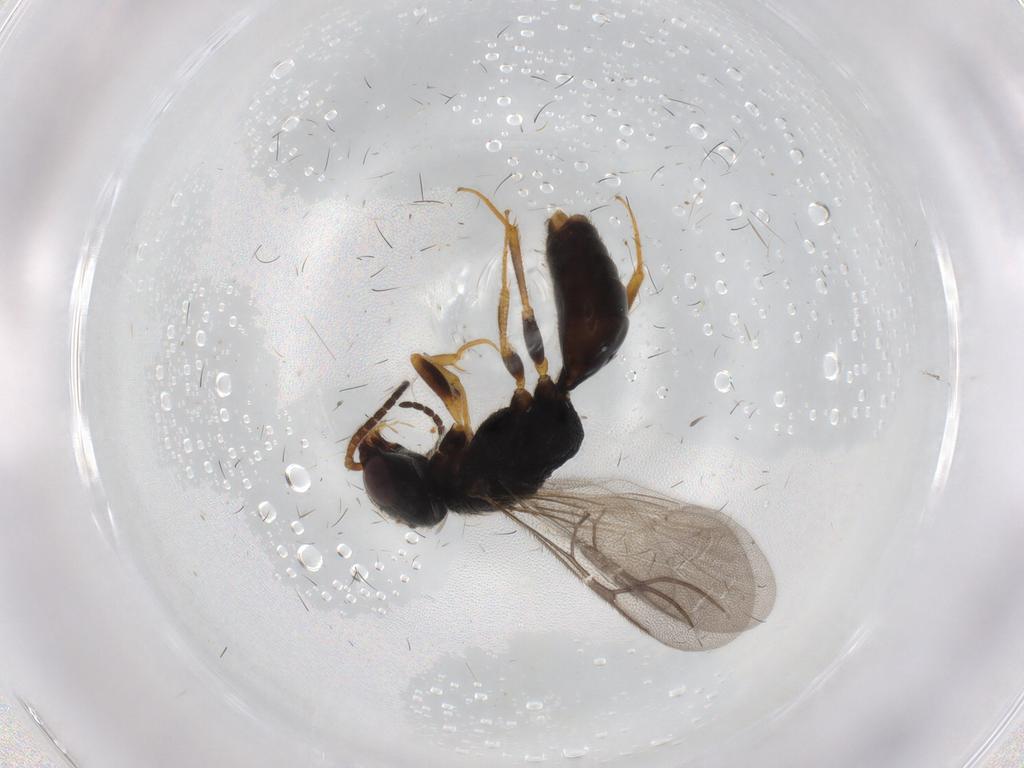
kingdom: Animalia
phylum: Arthropoda
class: Insecta
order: Hymenoptera
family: Bethylidae
